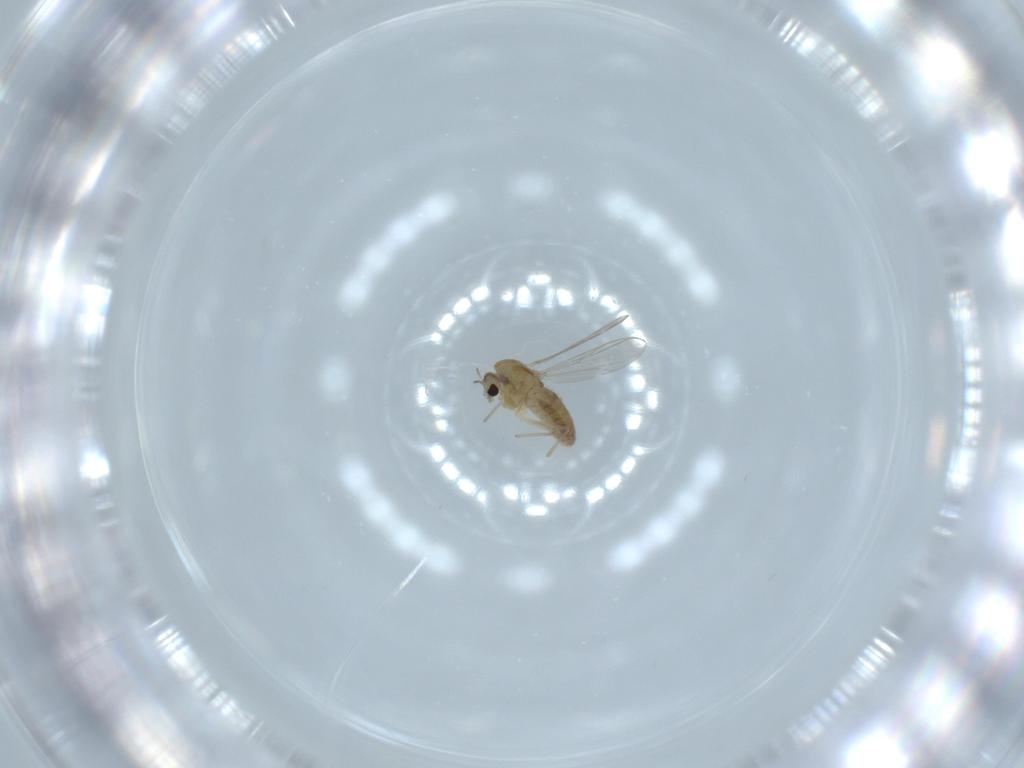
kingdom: Animalia
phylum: Arthropoda
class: Insecta
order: Diptera
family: Chironomidae
